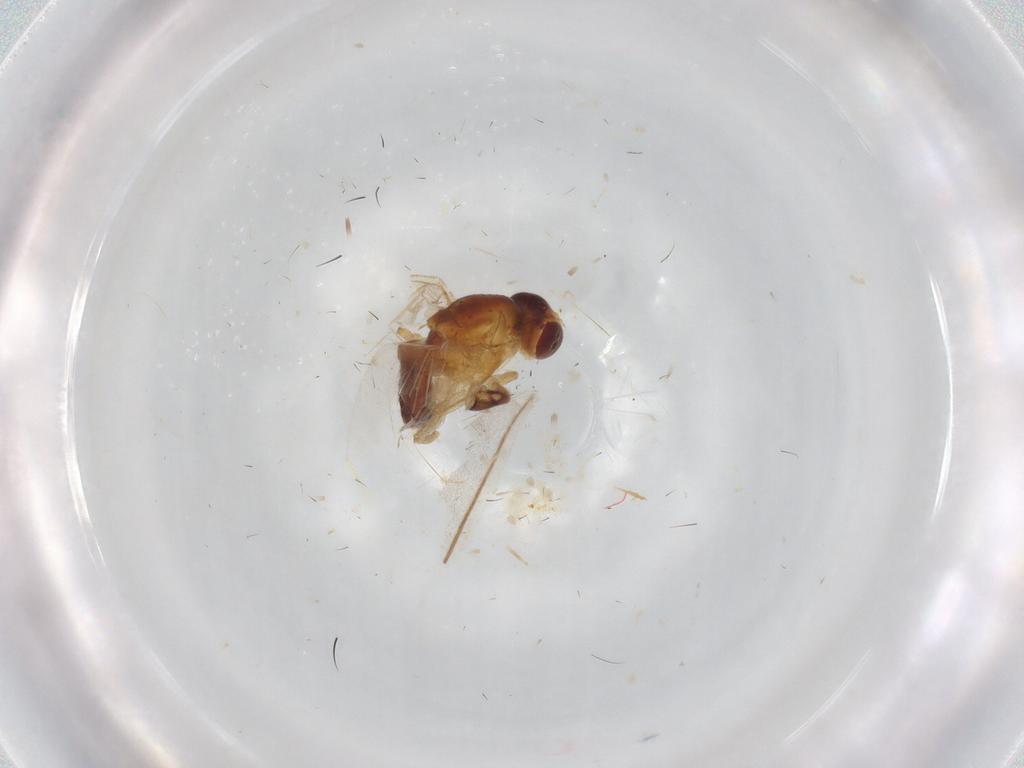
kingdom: Animalia
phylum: Arthropoda
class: Insecta
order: Diptera
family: Drosophilidae
